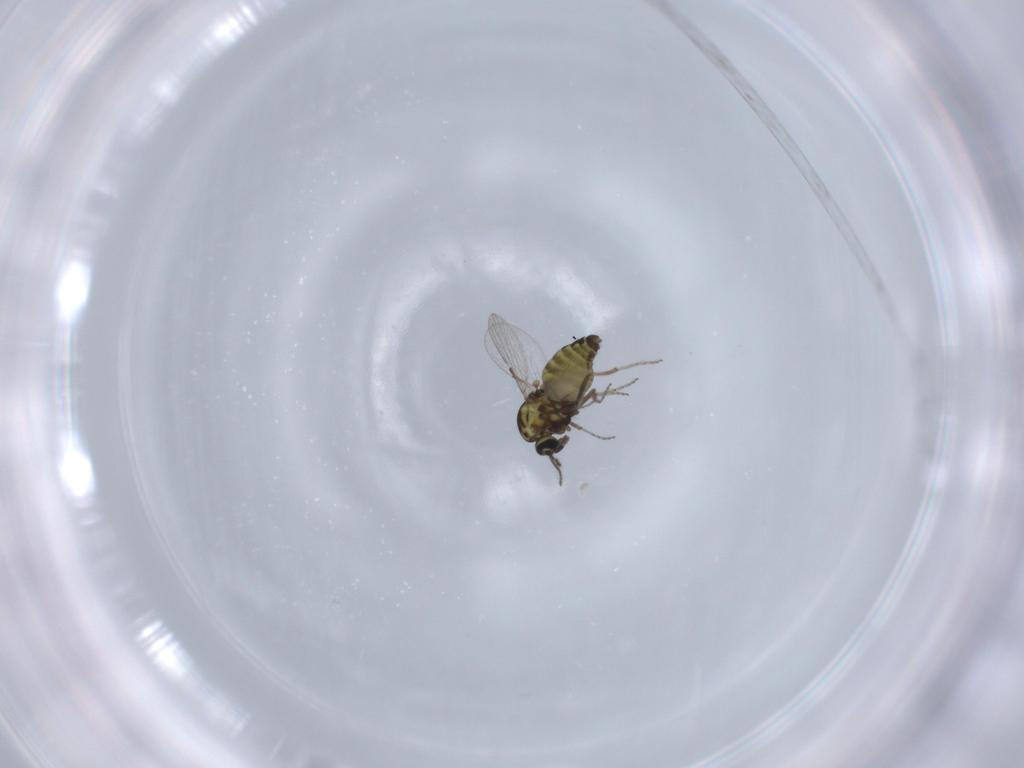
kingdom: Animalia
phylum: Arthropoda
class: Insecta
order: Diptera
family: Ceratopogonidae
